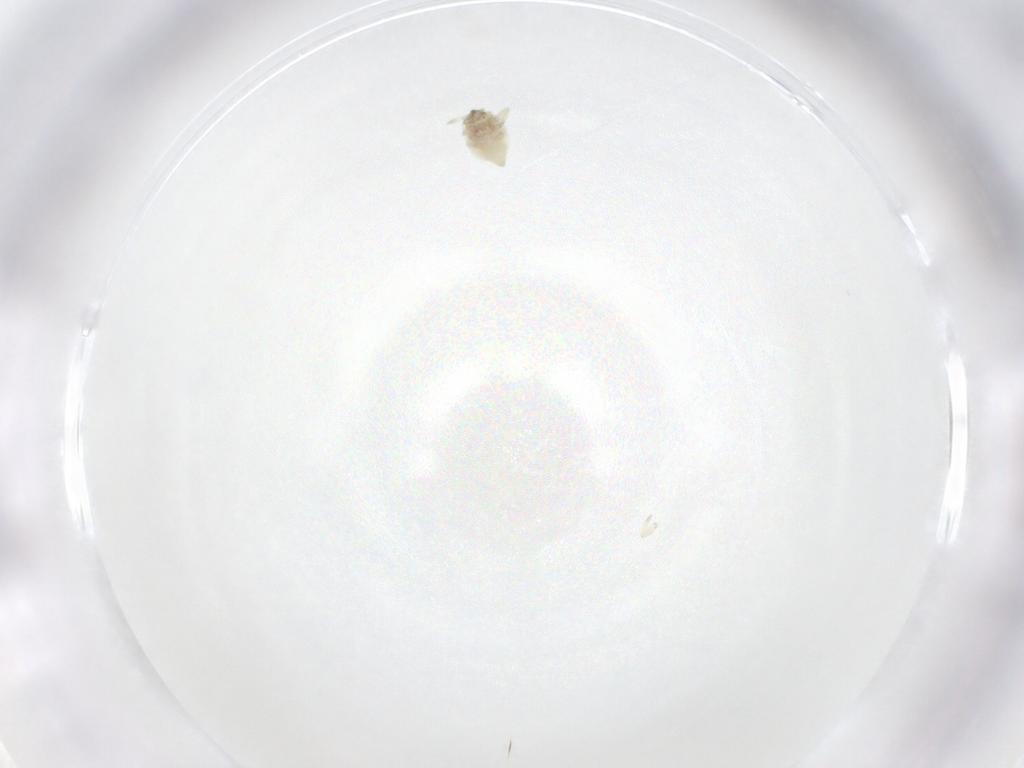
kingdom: Animalia
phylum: Arthropoda
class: Insecta
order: Neuroptera
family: Coniopterygidae
